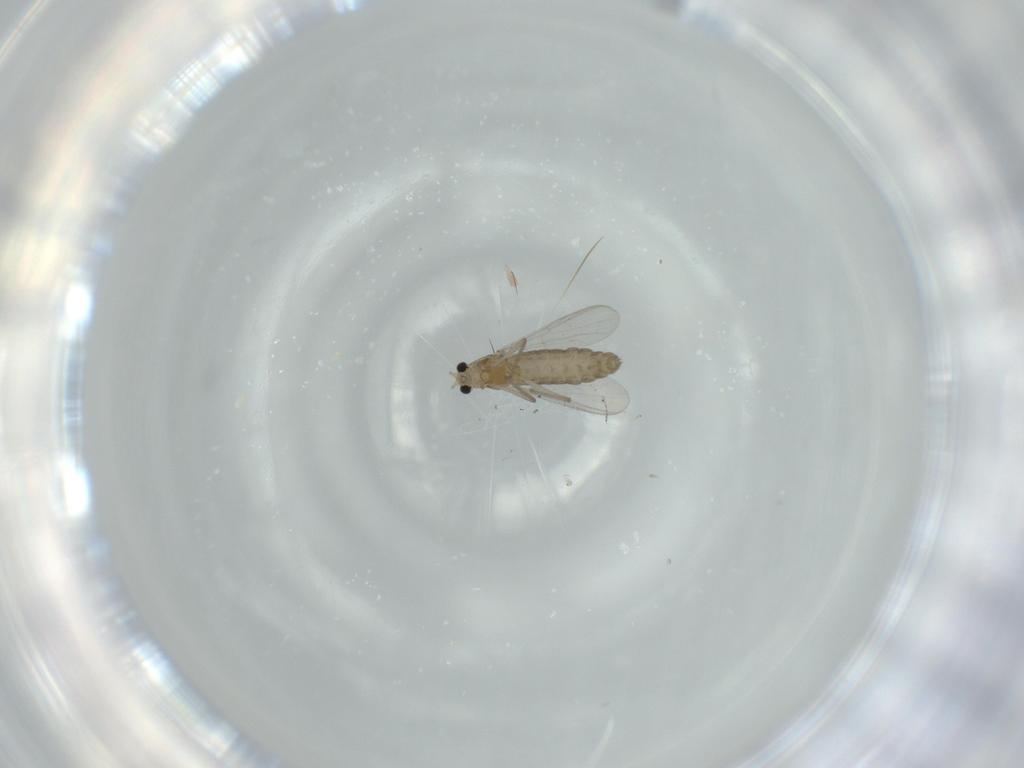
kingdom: Animalia
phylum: Arthropoda
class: Insecta
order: Diptera
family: Chironomidae
